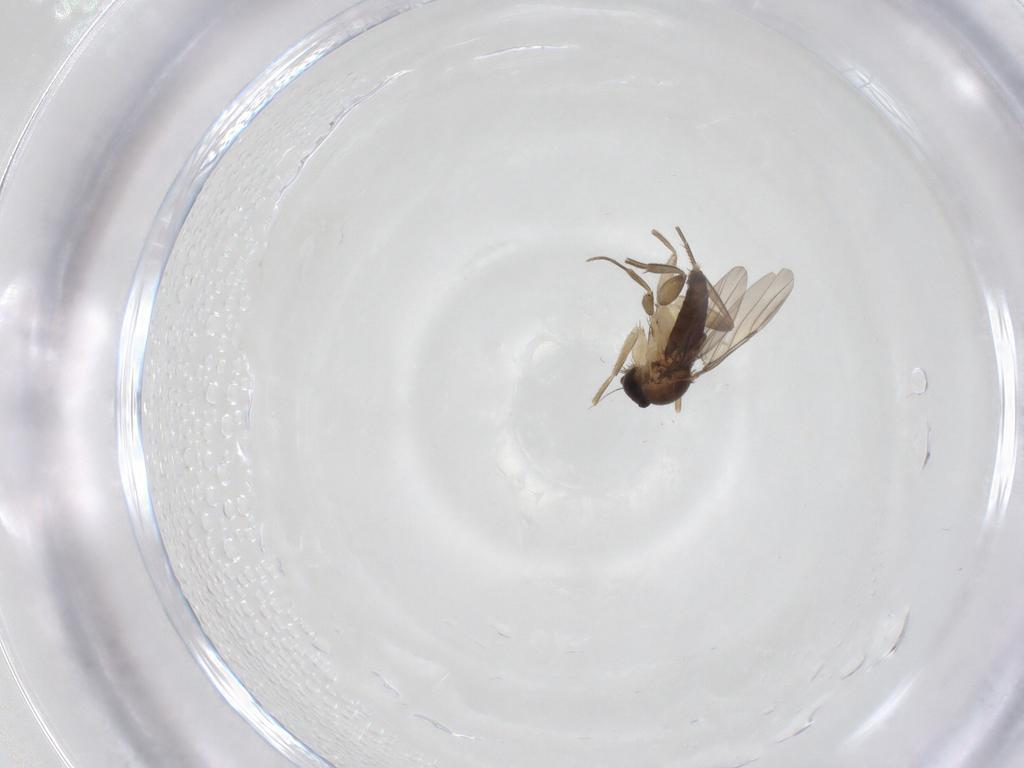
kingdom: Animalia
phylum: Arthropoda
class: Insecta
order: Diptera
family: Phoridae
